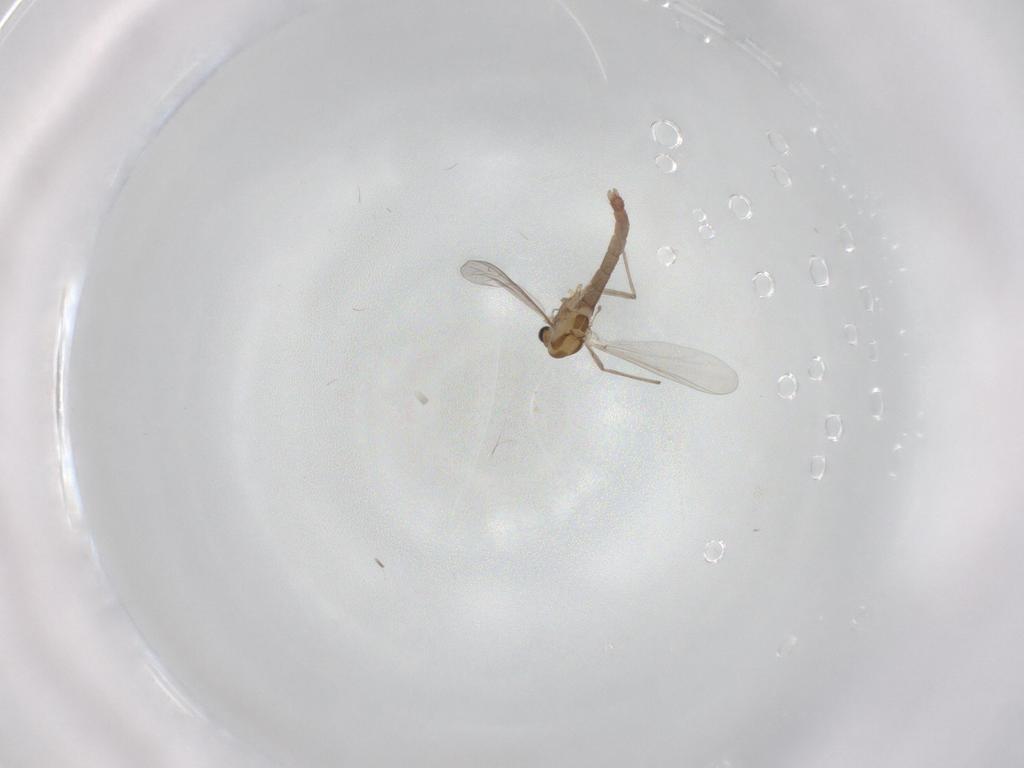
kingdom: Animalia
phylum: Arthropoda
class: Insecta
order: Diptera
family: Chironomidae
